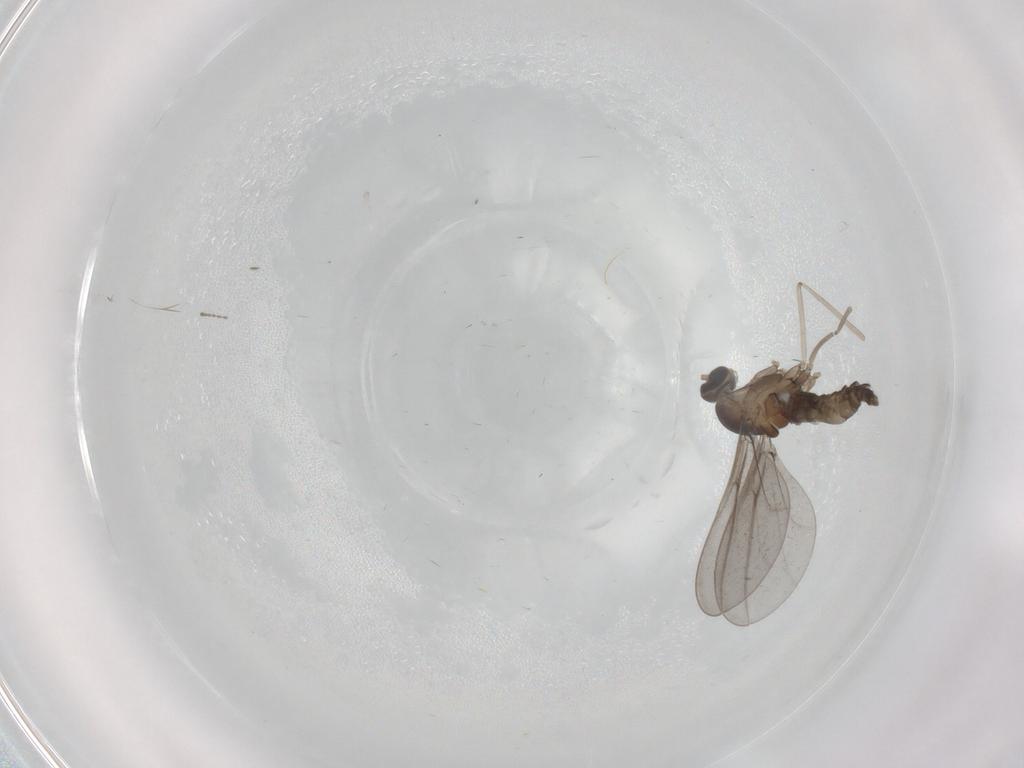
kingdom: Animalia
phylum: Arthropoda
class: Insecta
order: Diptera
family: Cecidomyiidae
